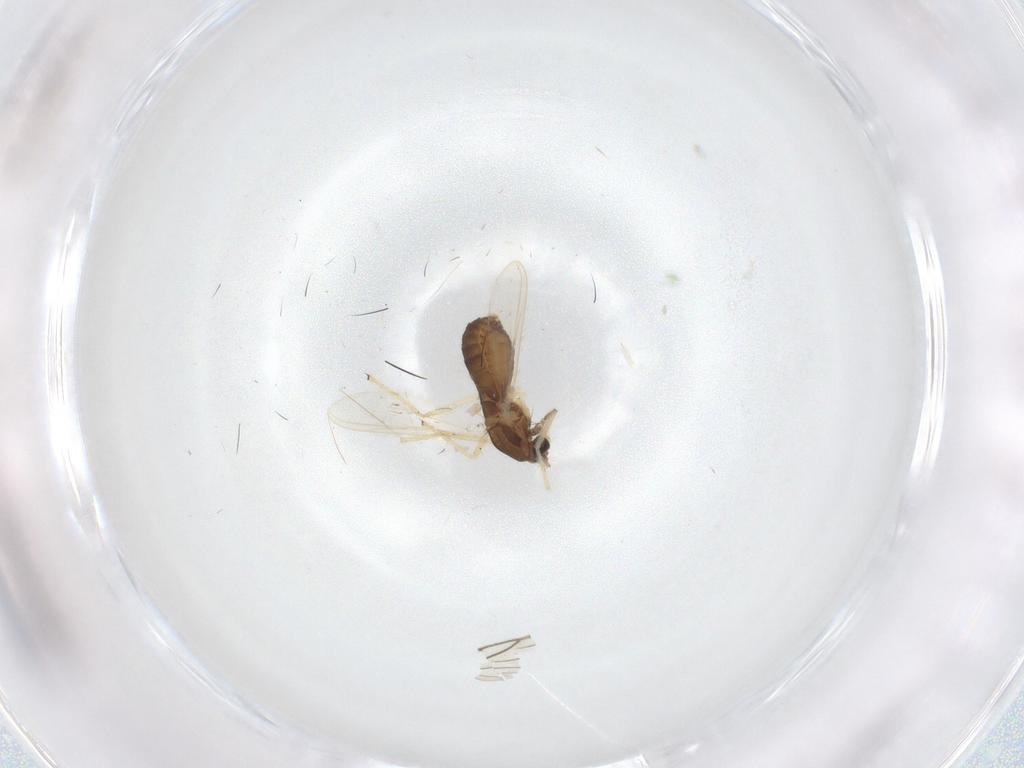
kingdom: Animalia
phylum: Arthropoda
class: Insecta
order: Diptera
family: Chironomidae
